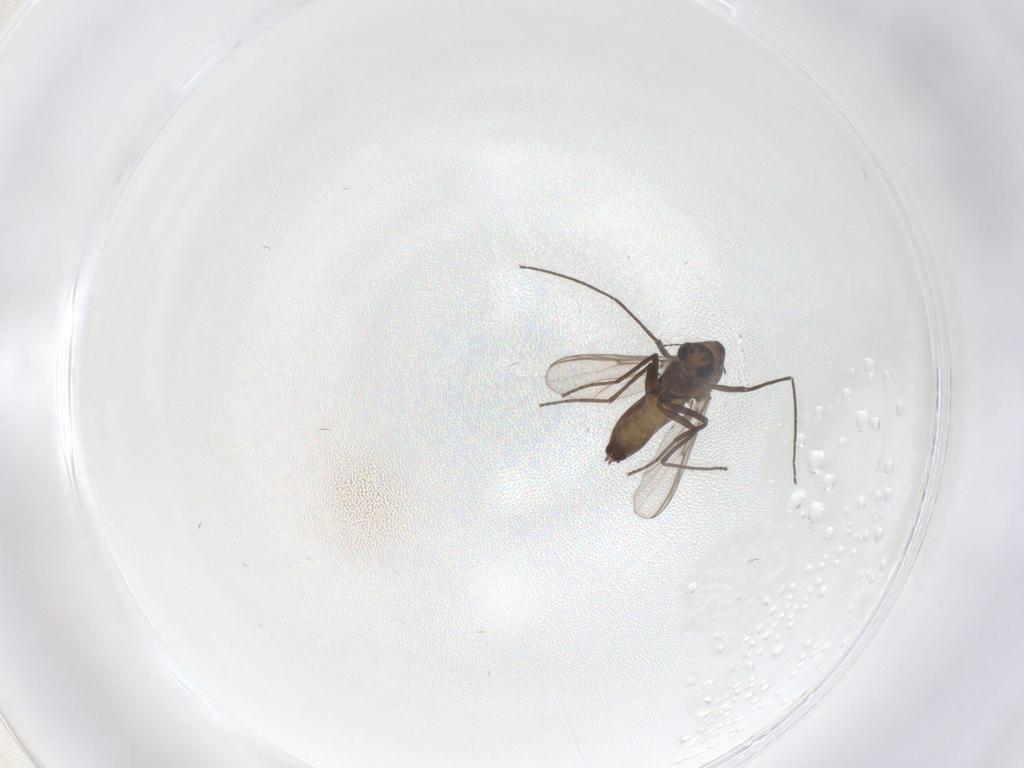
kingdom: Animalia
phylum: Arthropoda
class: Insecta
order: Diptera
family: Chironomidae
